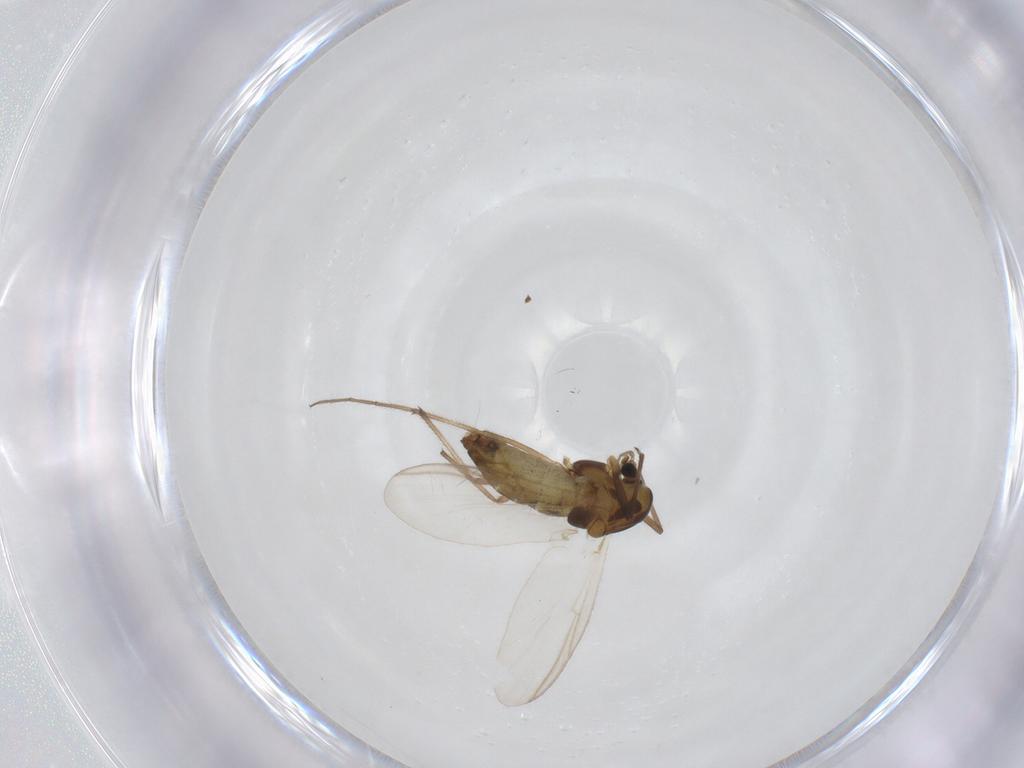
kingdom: Animalia
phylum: Arthropoda
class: Insecta
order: Diptera
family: Chironomidae
